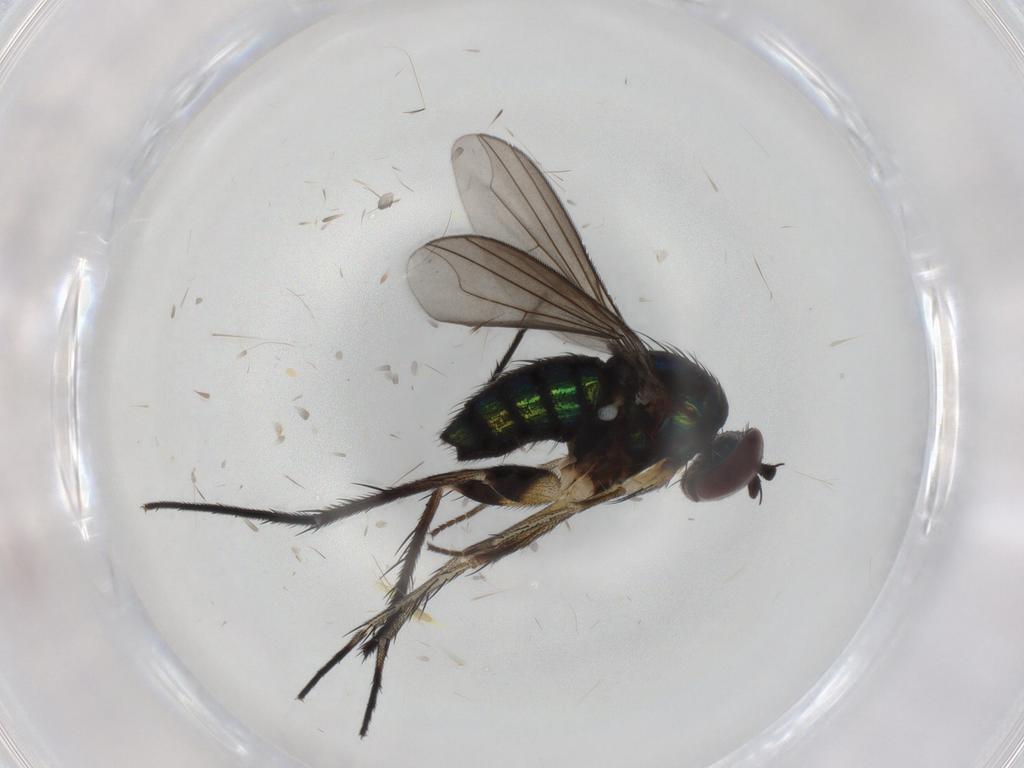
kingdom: Animalia
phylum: Arthropoda
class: Insecta
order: Diptera
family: Dolichopodidae
